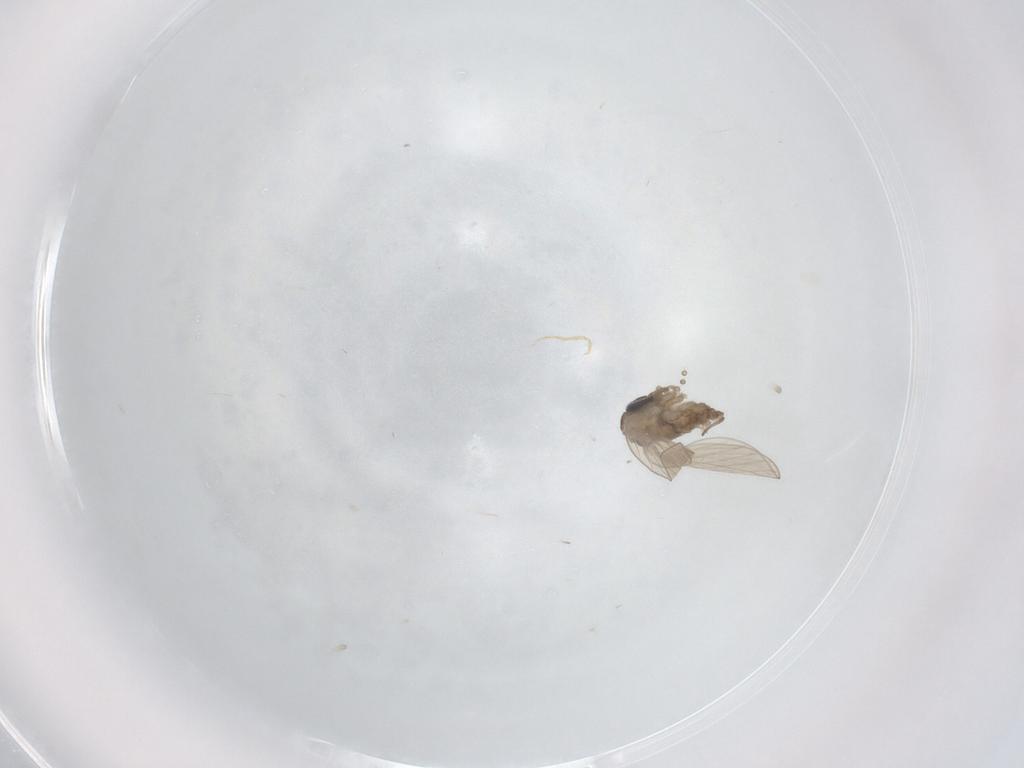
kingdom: Animalia
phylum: Arthropoda
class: Insecta
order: Diptera
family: Psychodidae
